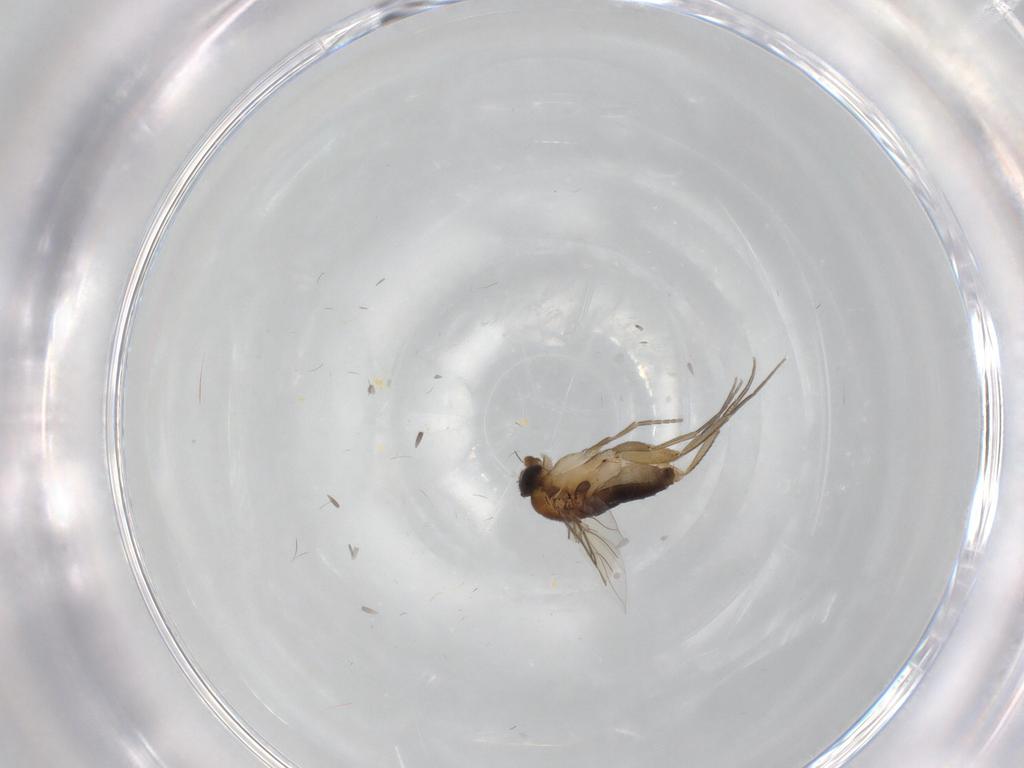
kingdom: Animalia
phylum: Arthropoda
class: Insecta
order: Diptera
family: Phoridae
